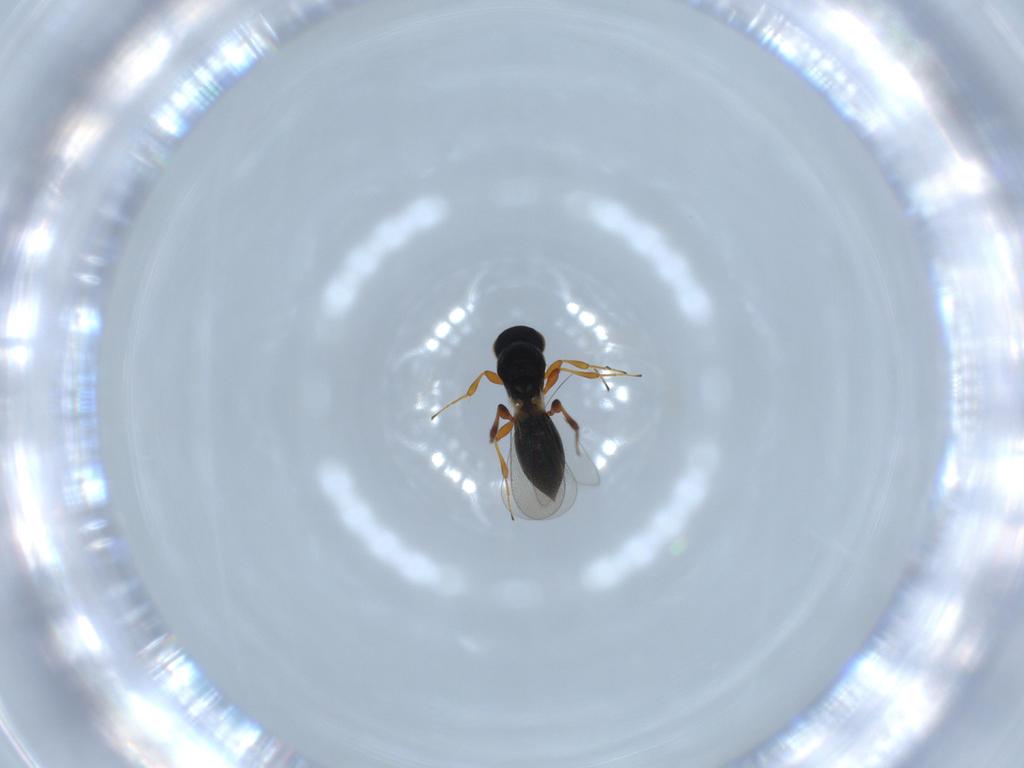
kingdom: Animalia
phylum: Arthropoda
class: Insecta
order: Hymenoptera
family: Platygastridae
